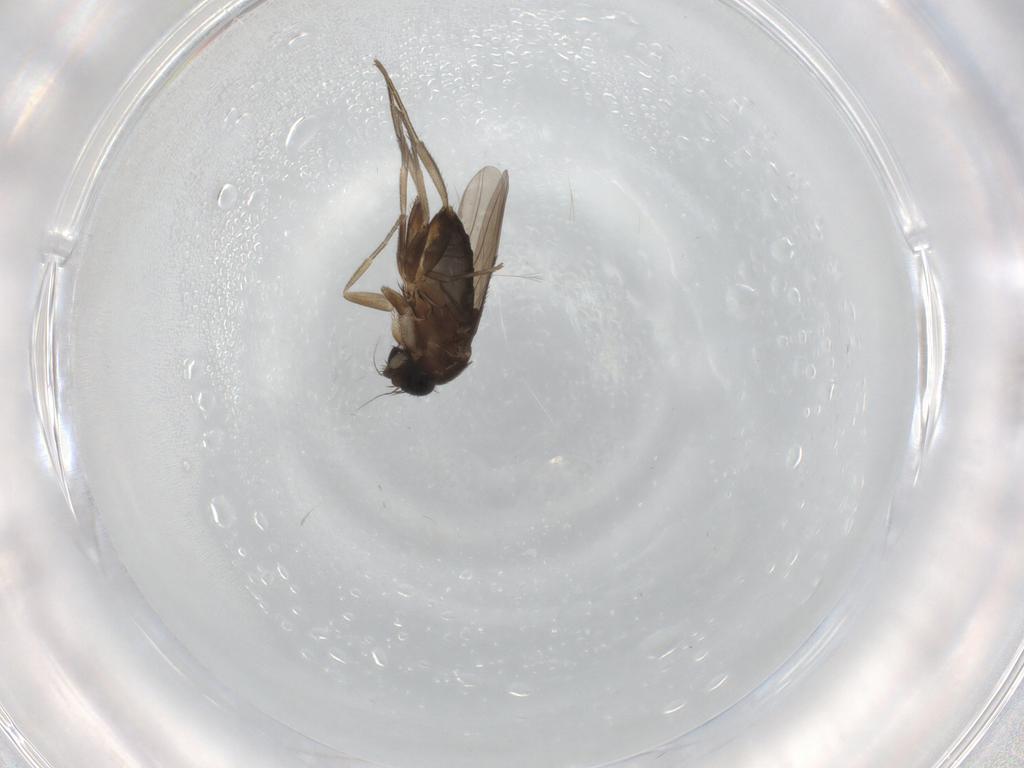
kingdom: Animalia
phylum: Arthropoda
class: Insecta
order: Diptera
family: Phoridae
